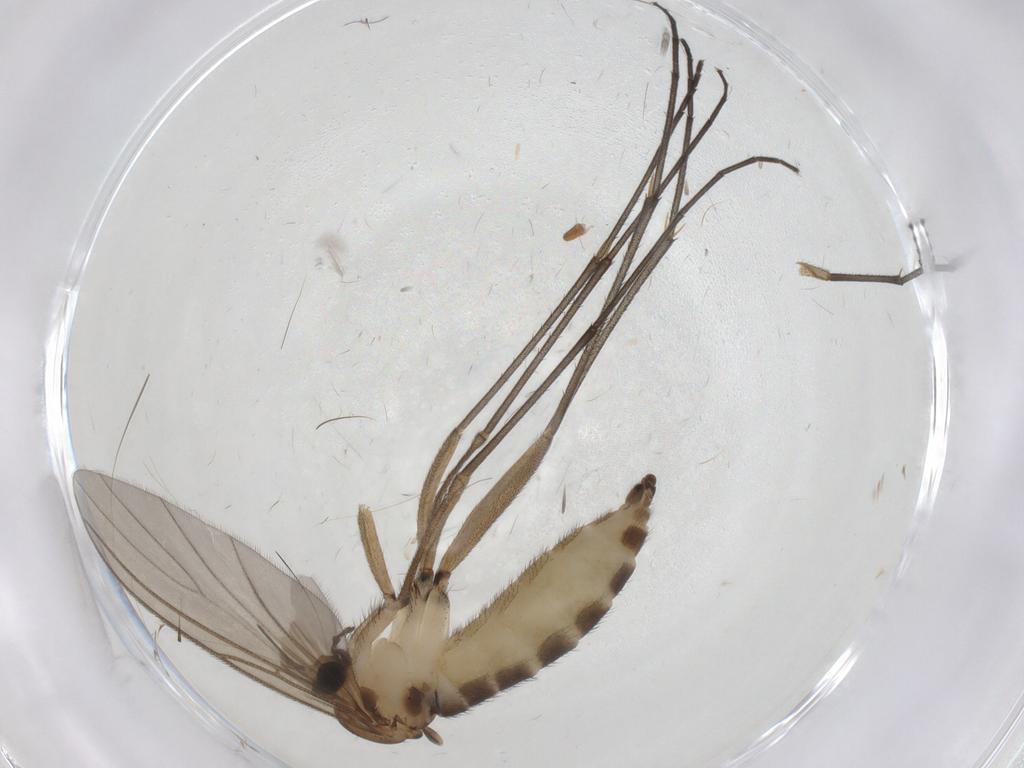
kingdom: Animalia
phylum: Arthropoda
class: Insecta
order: Diptera
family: Sciaridae
